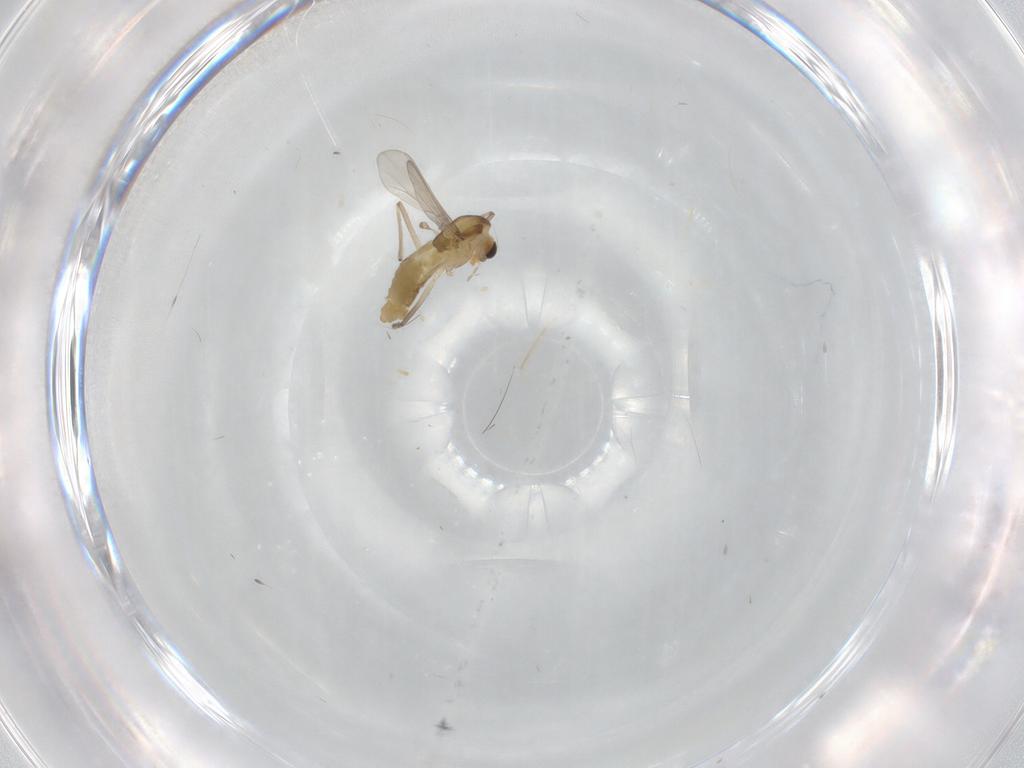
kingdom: Animalia
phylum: Arthropoda
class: Insecta
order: Diptera
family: Chironomidae
